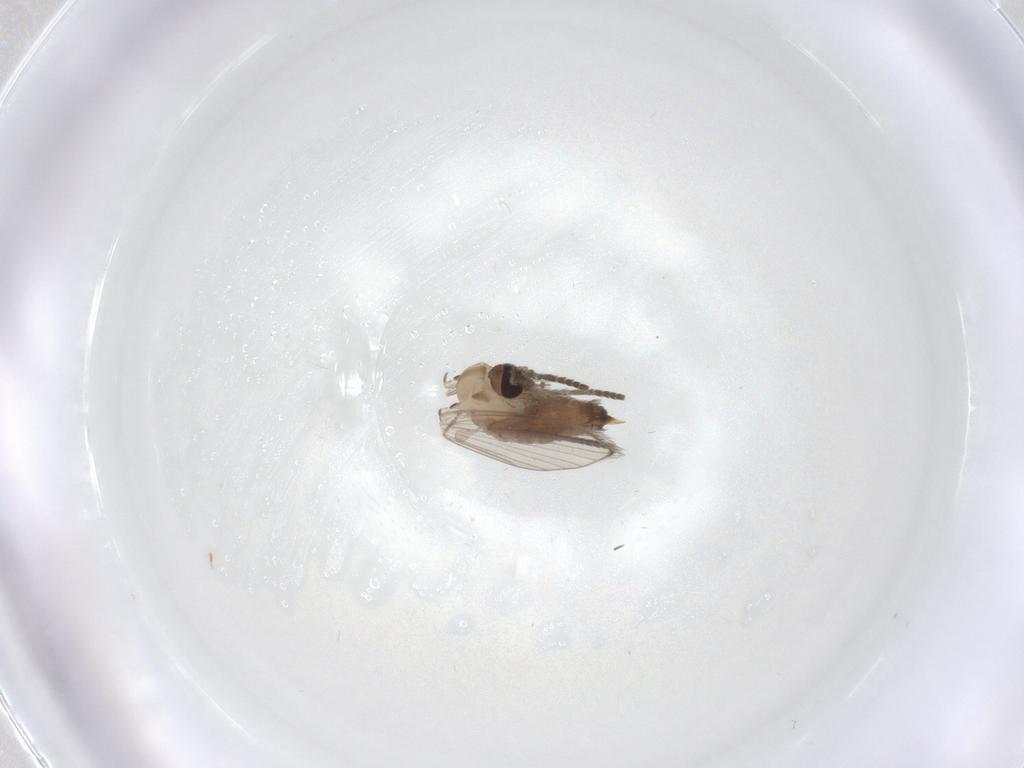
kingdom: Animalia
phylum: Arthropoda
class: Insecta
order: Diptera
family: Psychodidae
